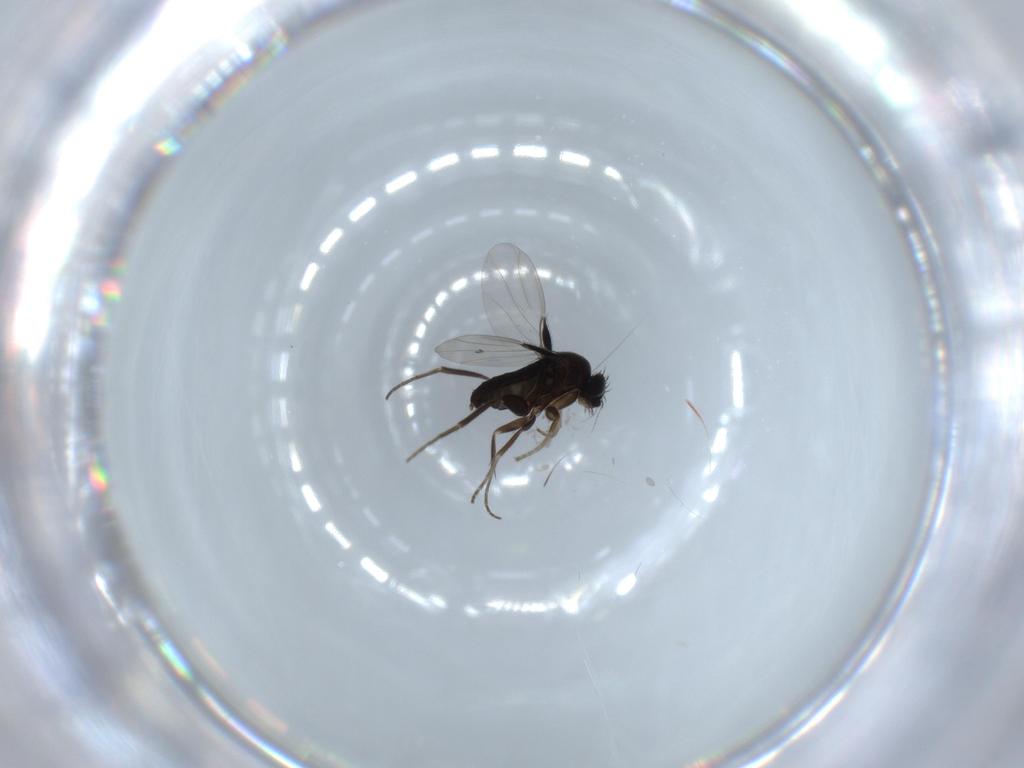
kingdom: Animalia
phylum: Arthropoda
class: Insecta
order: Diptera
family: Phoridae
